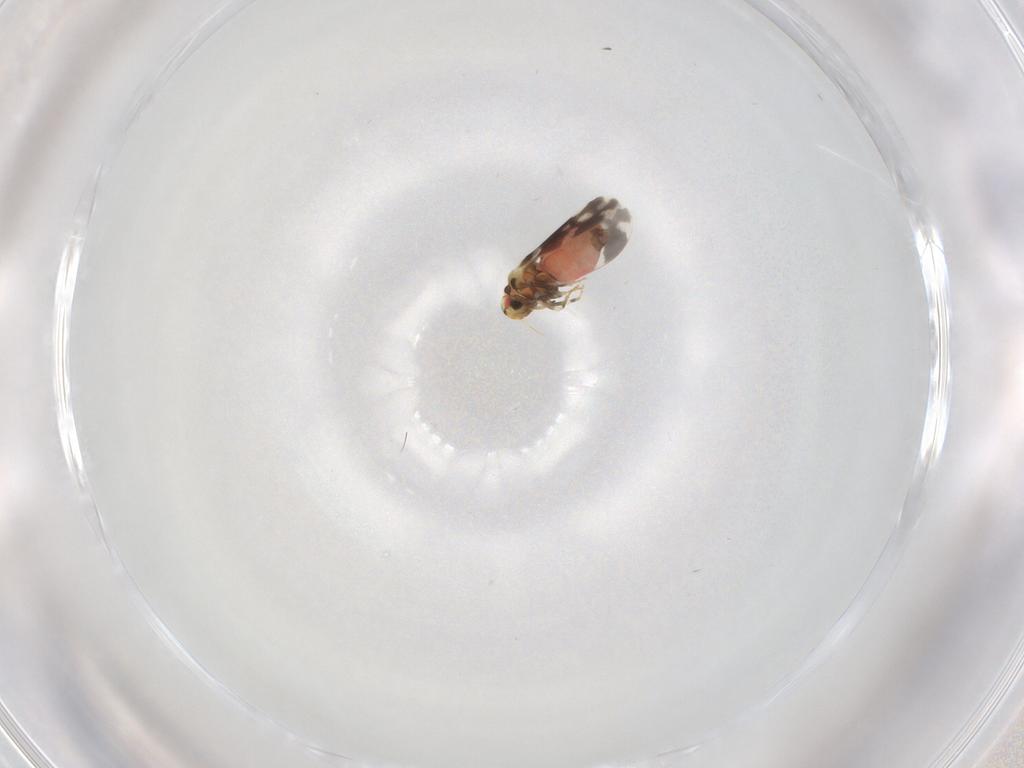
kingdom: Animalia
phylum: Arthropoda
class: Insecta
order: Hemiptera
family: Aleyrodidae
